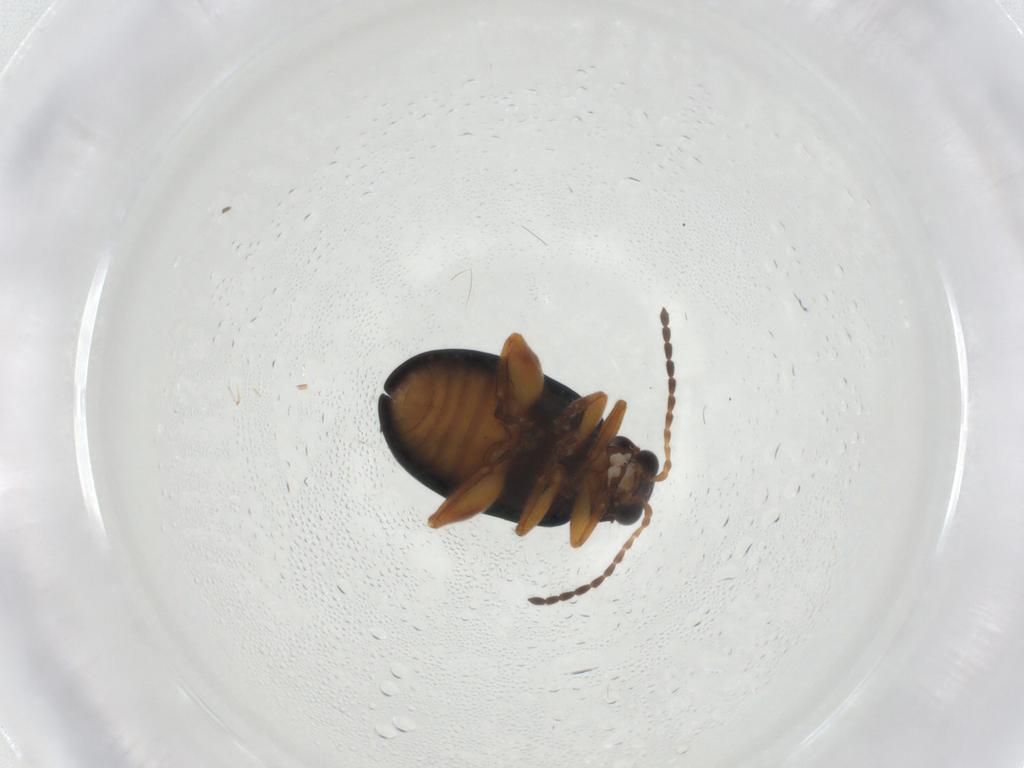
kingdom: Animalia
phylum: Arthropoda
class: Insecta
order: Coleoptera
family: Chrysomelidae
